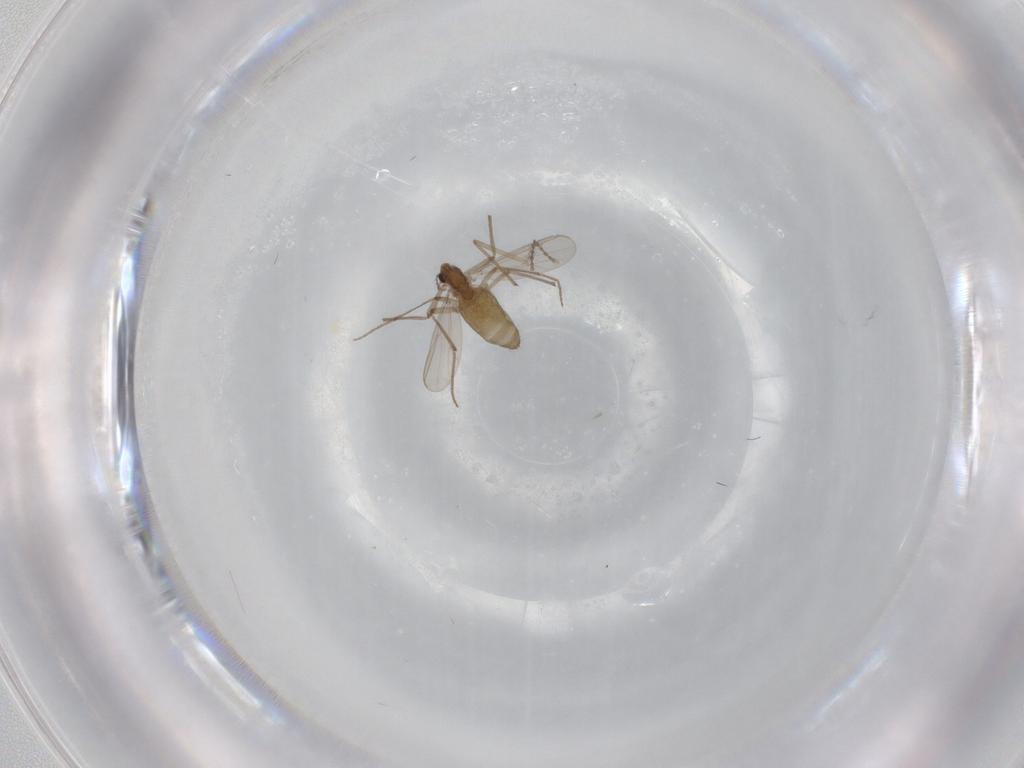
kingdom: Animalia
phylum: Arthropoda
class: Insecta
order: Diptera
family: Chironomidae
